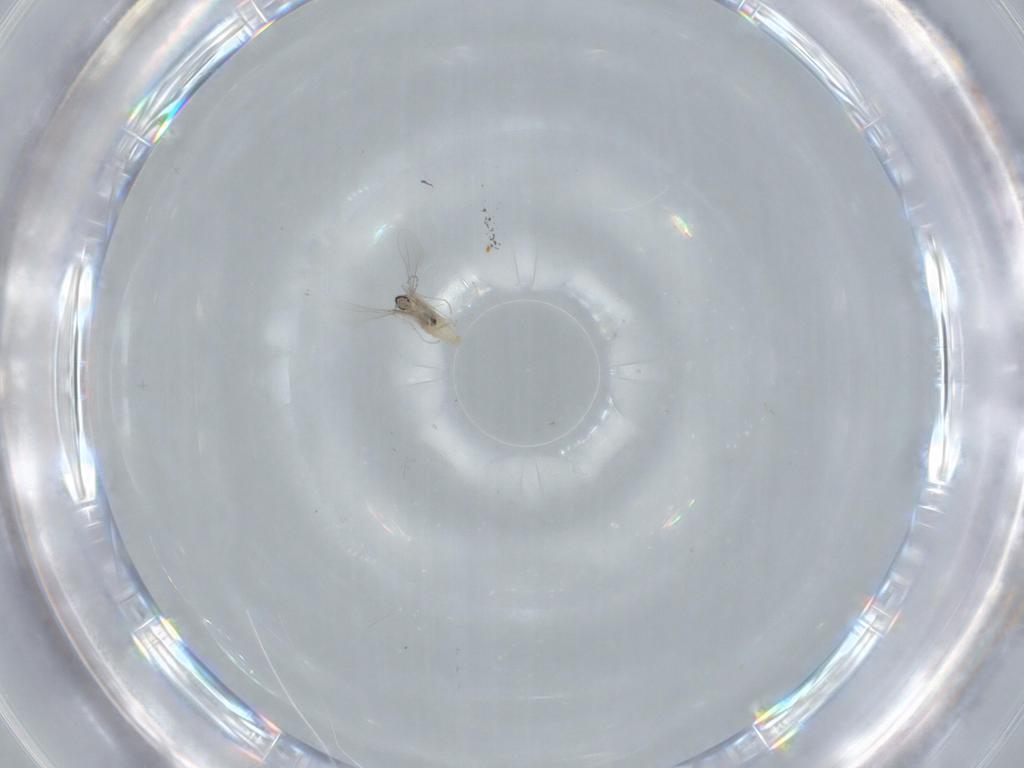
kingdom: Animalia
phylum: Arthropoda
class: Insecta
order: Diptera
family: Cecidomyiidae
